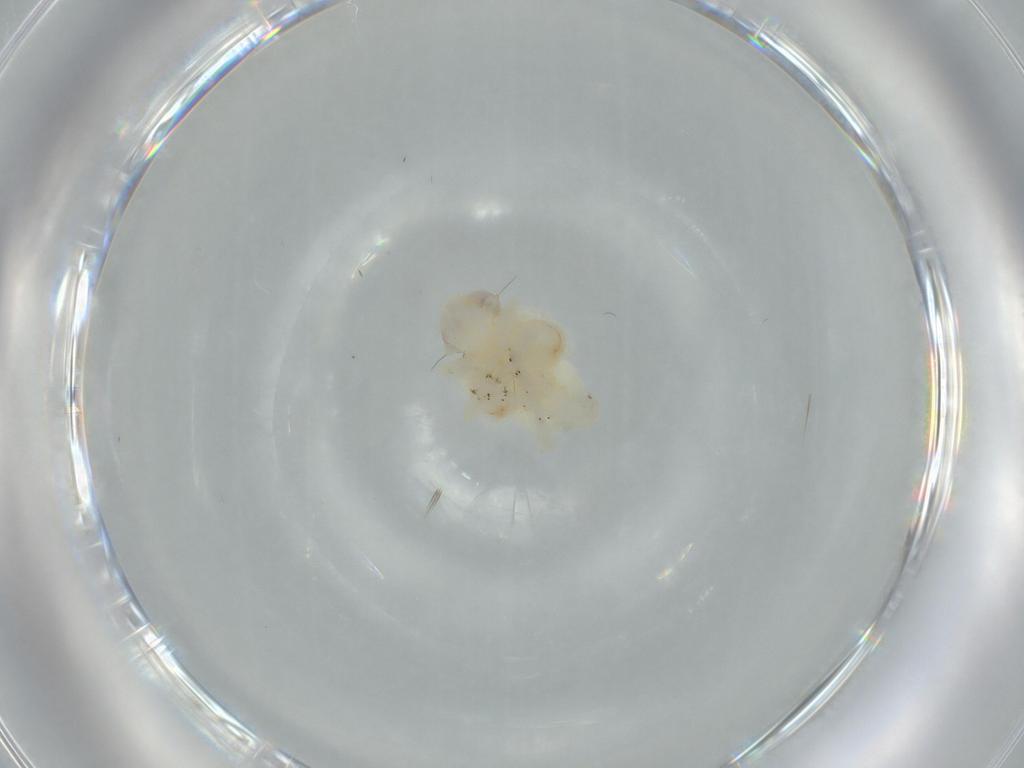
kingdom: Animalia
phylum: Arthropoda
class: Insecta
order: Hemiptera
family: Nogodinidae
